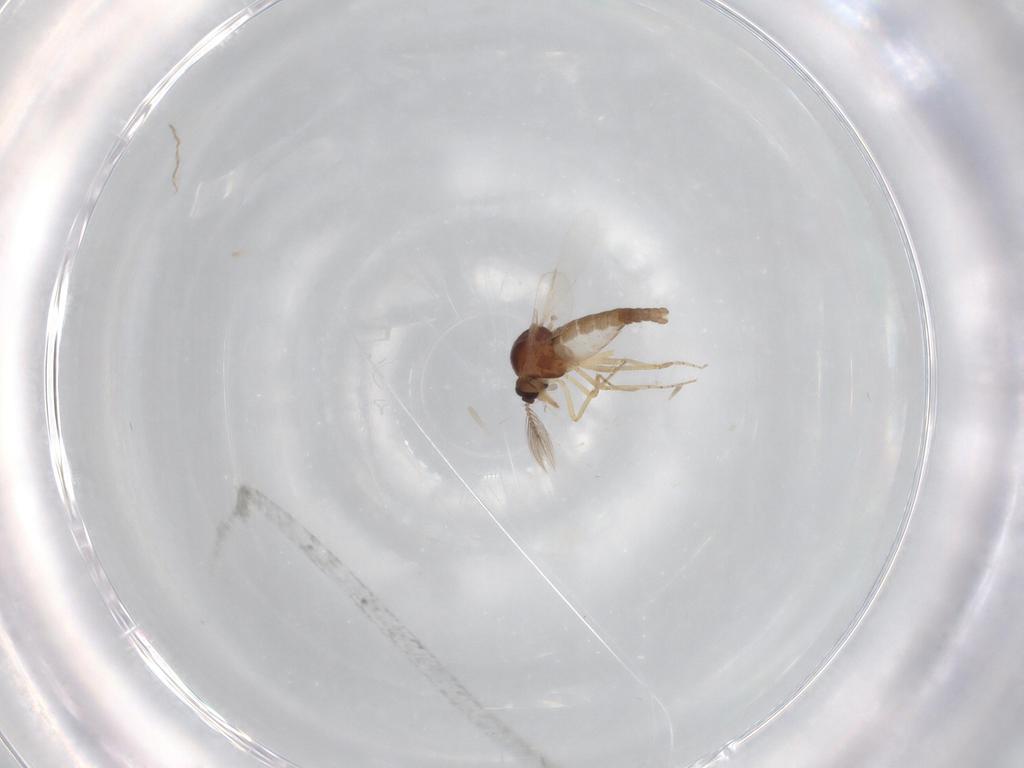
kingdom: Animalia
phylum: Arthropoda
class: Insecta
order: Diptera
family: Ceratopogonidae
